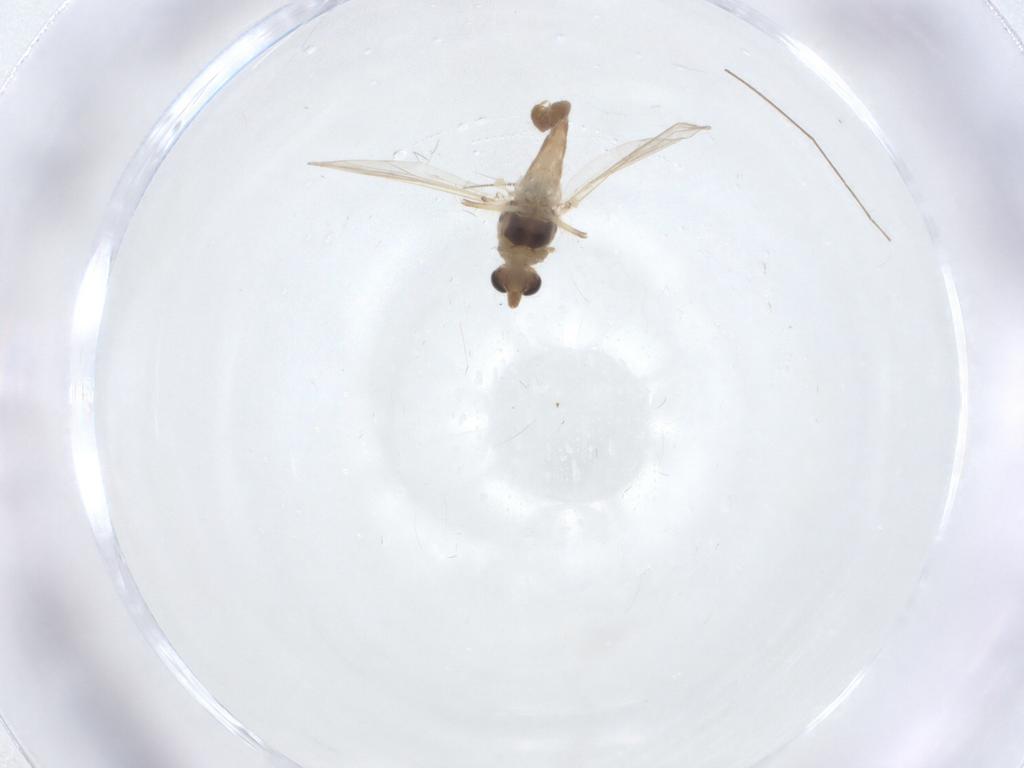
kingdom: Animalia
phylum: Arthropoda
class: Insecta
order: Diptera
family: Chironomidae
